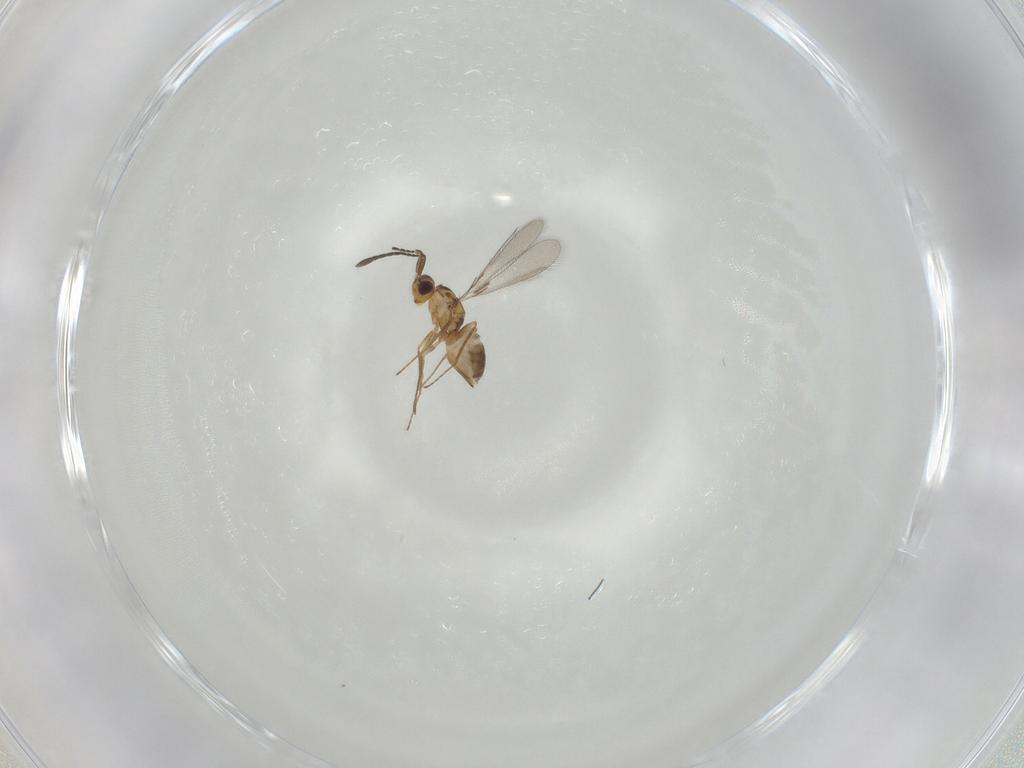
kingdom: Animalia
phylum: Arthropoda
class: Insecta
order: Hymenoptera
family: Mymaridae
